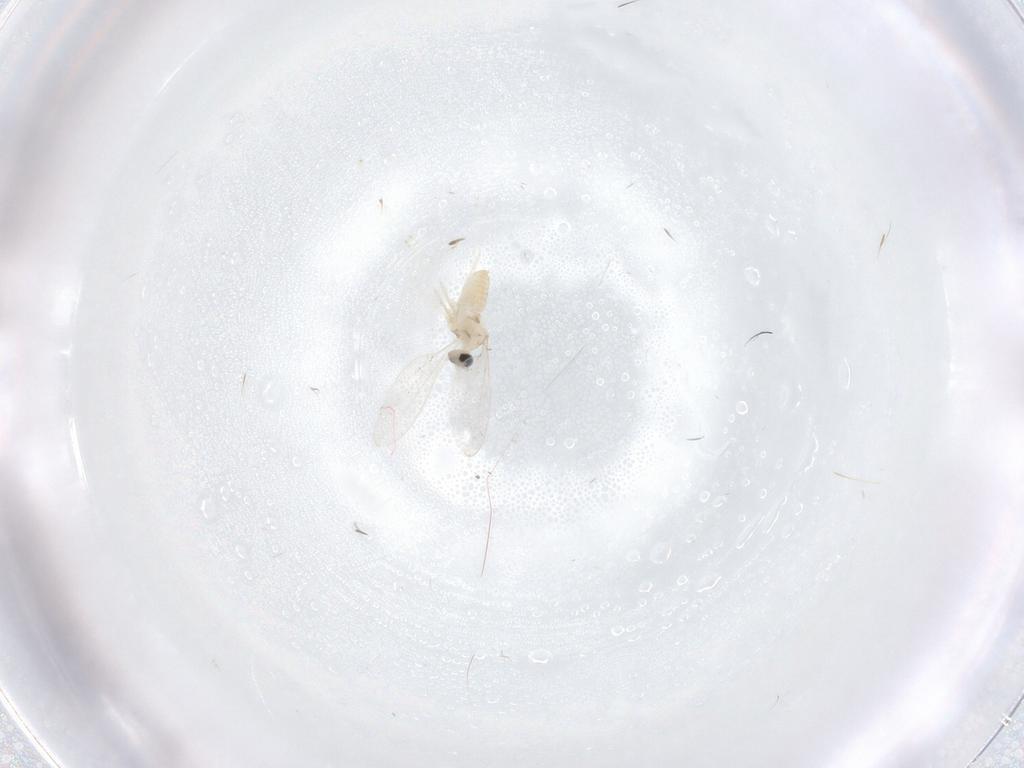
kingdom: Animalia
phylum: Arthropoda
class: Insecta
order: Diptera
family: Cecidomyiidae
